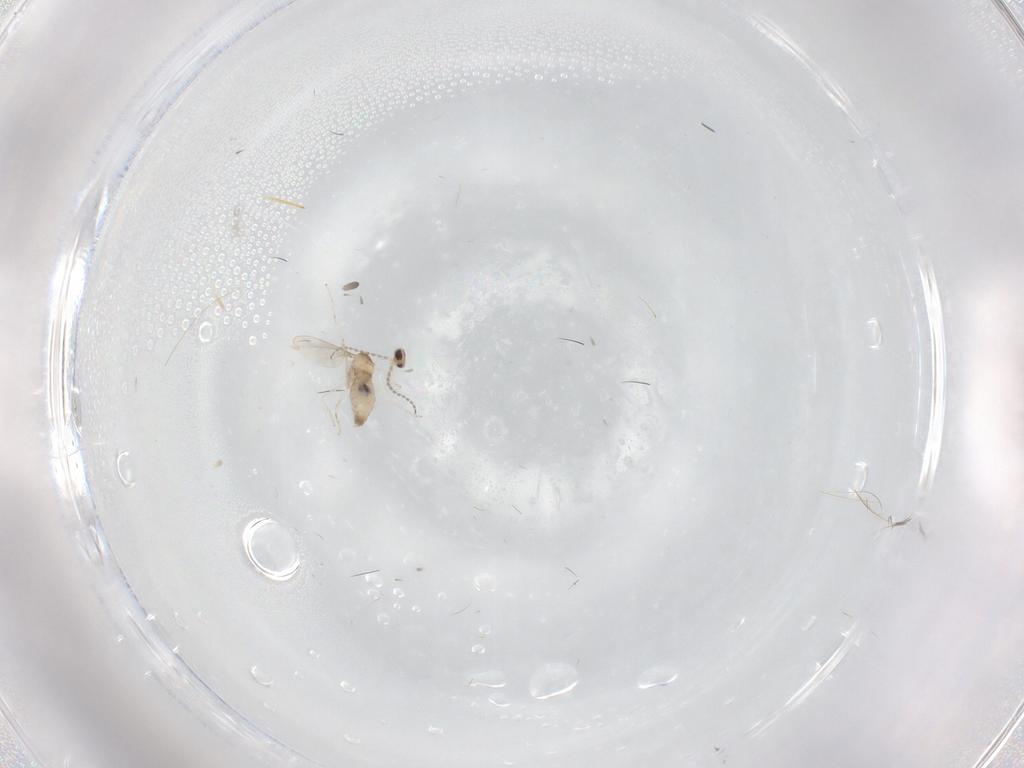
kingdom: Animalia
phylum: Arthropoda
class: Insecta
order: Diptera
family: Cecidomyiidae
